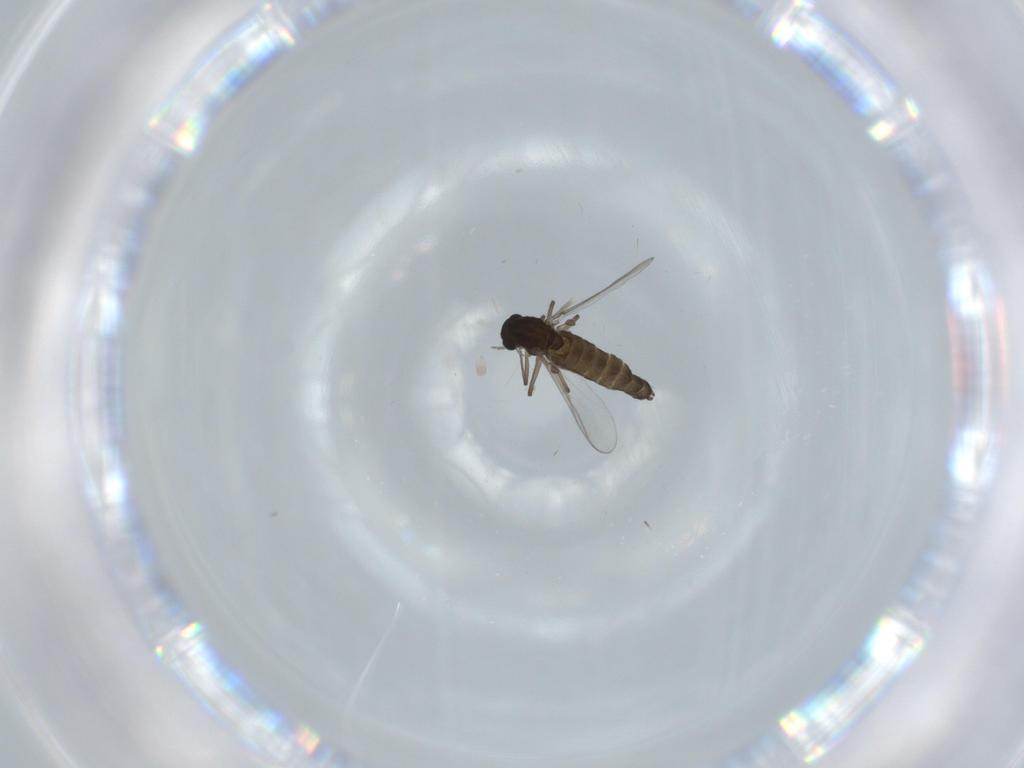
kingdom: Animalia
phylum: Arthropoda
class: Insecta
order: Diptera
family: Chironomidae
